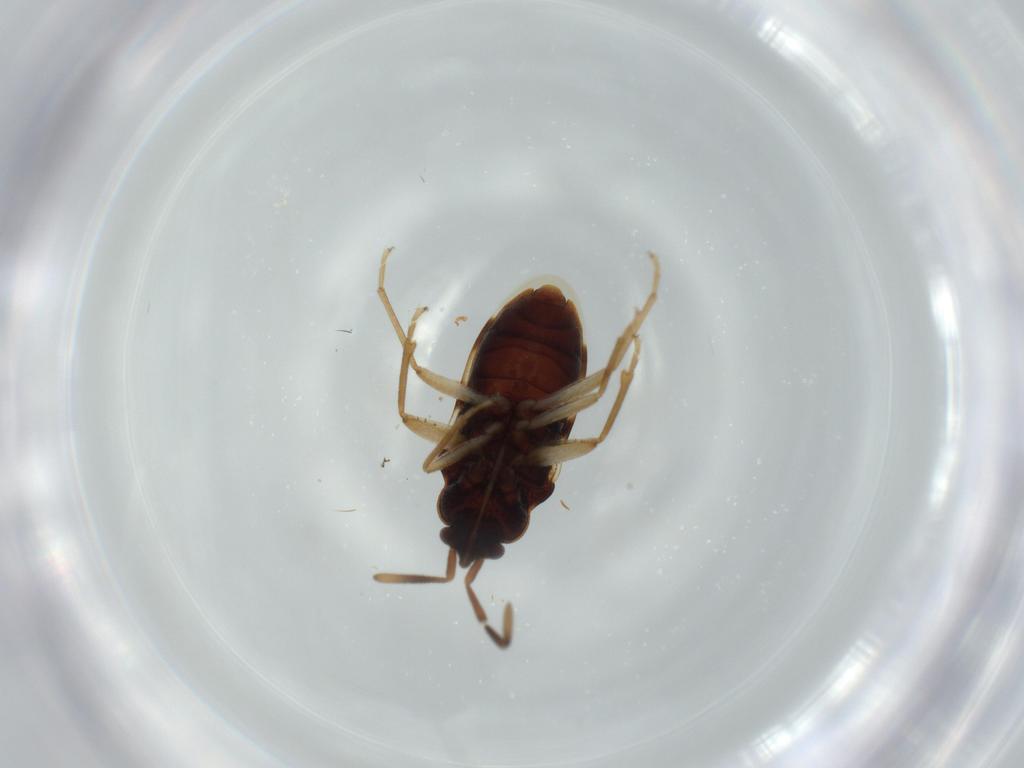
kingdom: Animalia
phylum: Arthropoda
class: Insecta
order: Hemiptera
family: Rhyparochromidae
